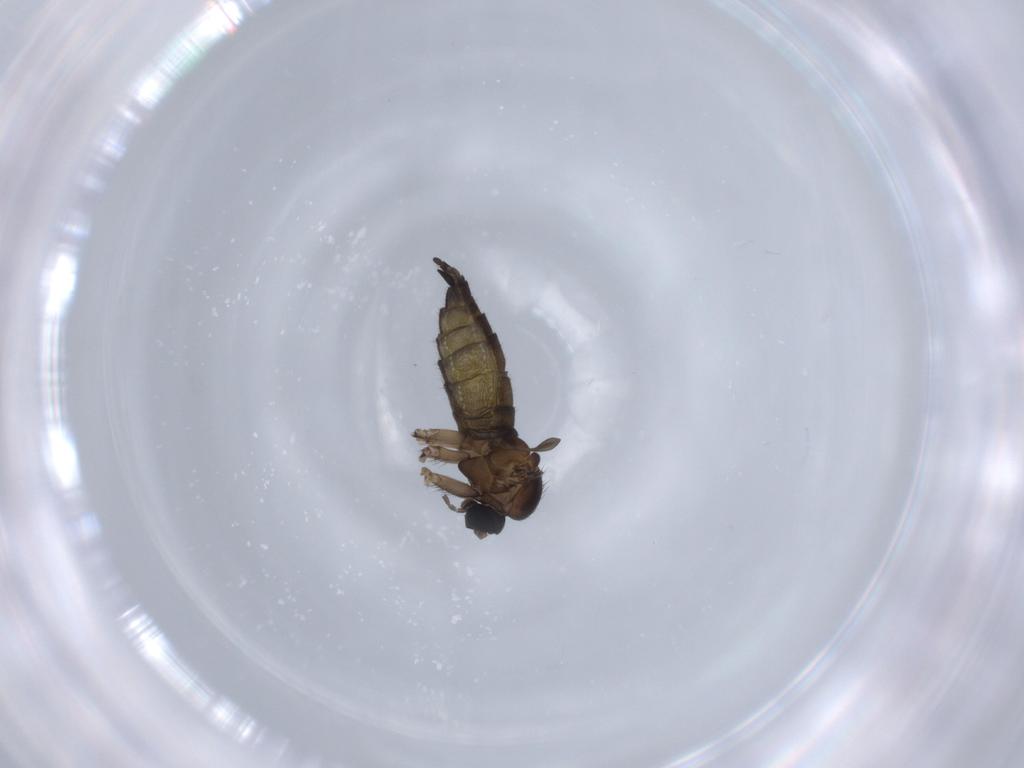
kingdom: Animalia
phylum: Arthropoda
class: Insecta
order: Diptera
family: Sciaridae
